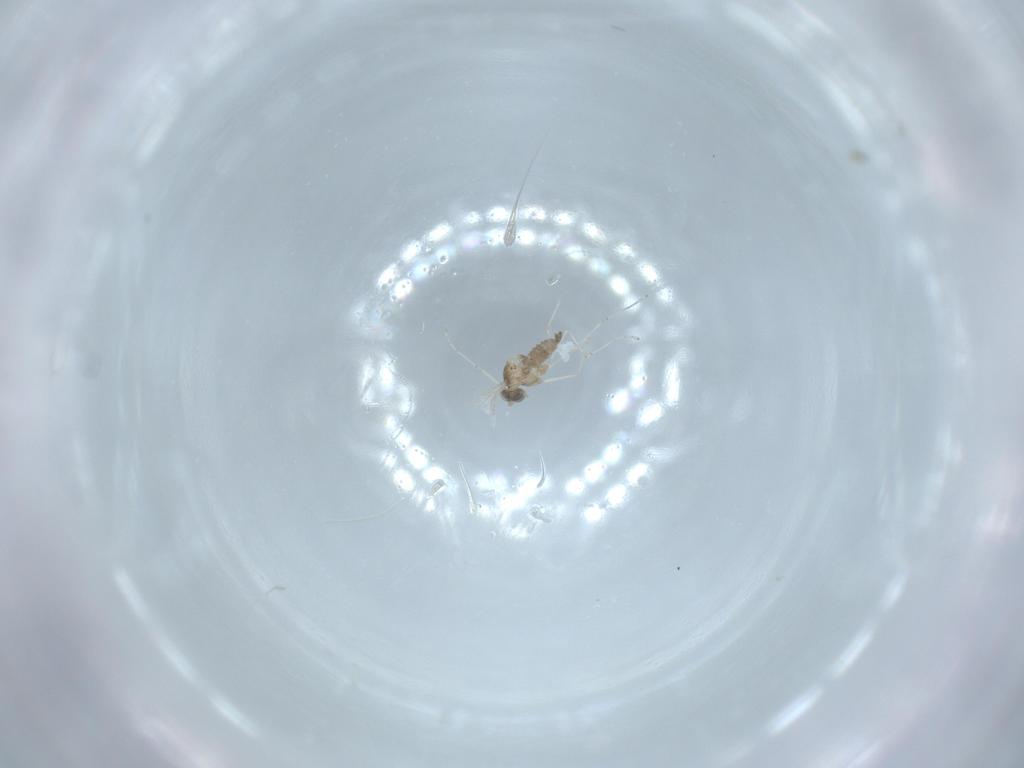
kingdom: Animalia
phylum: Arthropoda
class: Insecta
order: Diptera
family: Cecidomyiidae
